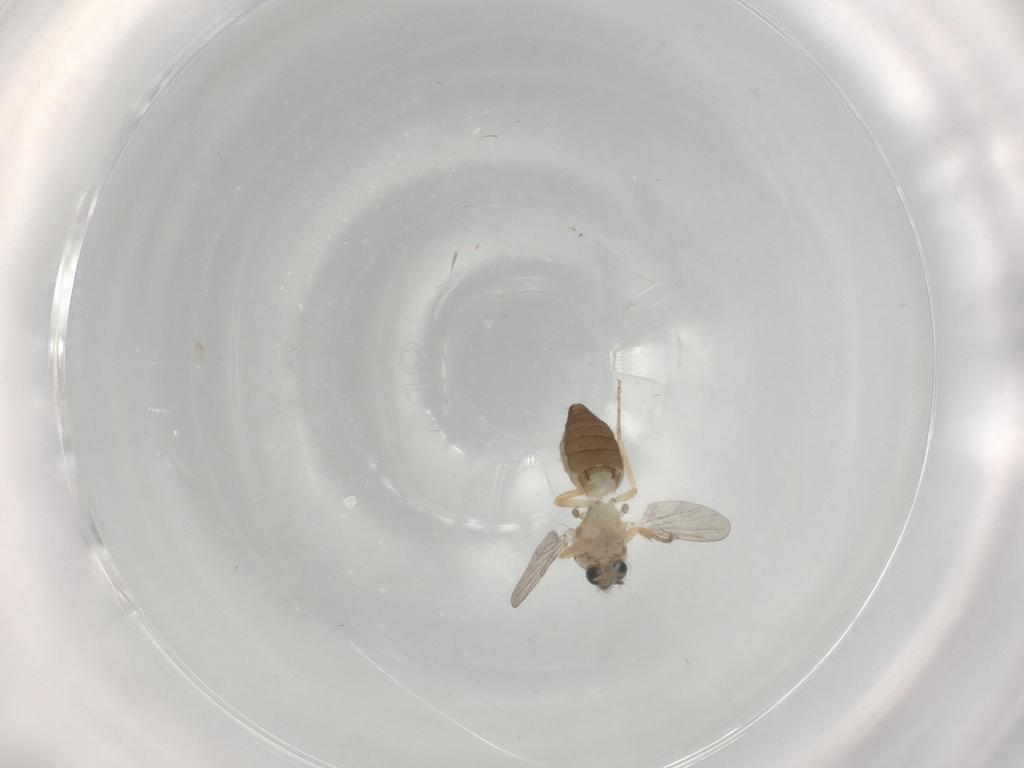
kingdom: Animalia
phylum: Arthropoda
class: Insecta
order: Diptera
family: Ceratopogonidae
